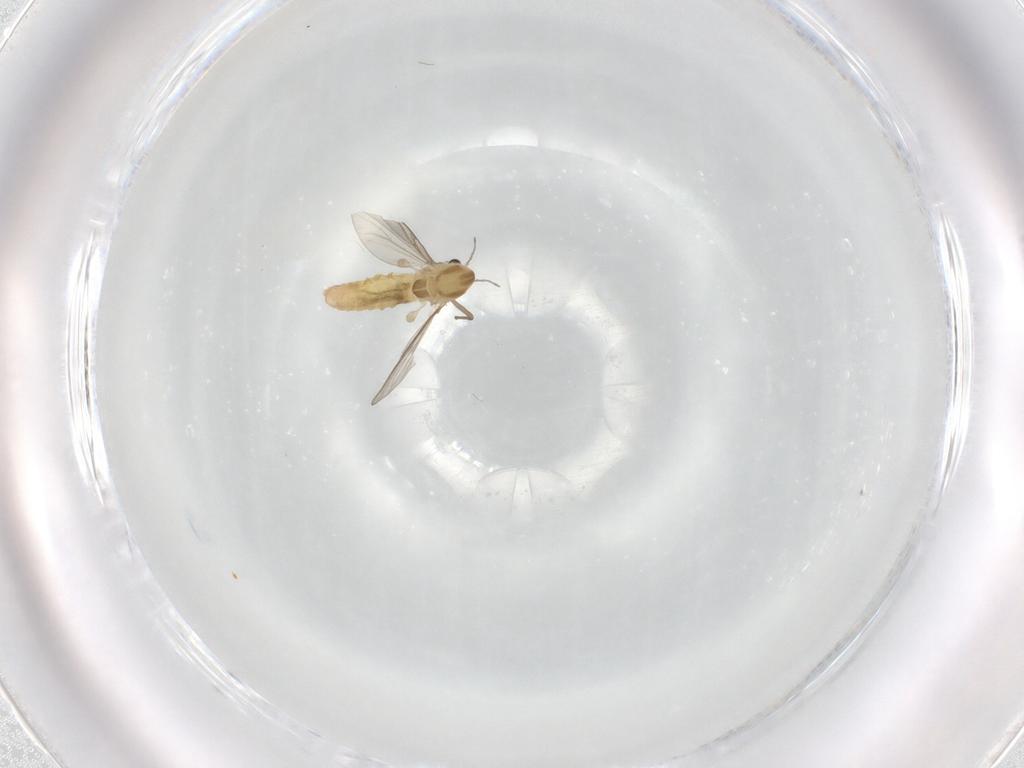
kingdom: Animalia
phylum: Arthropoda
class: Insecta
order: Diptera
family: Chironomidae
